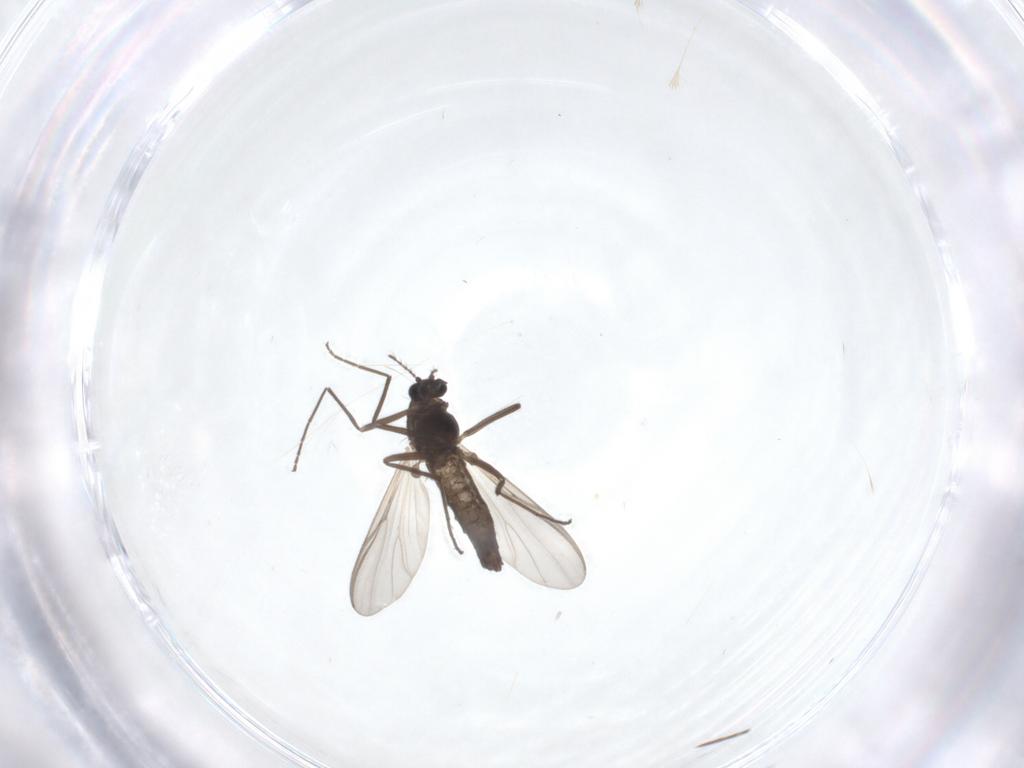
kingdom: Animalia
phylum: Arthropoda
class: Insecta
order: Diptera
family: Chironomidae
